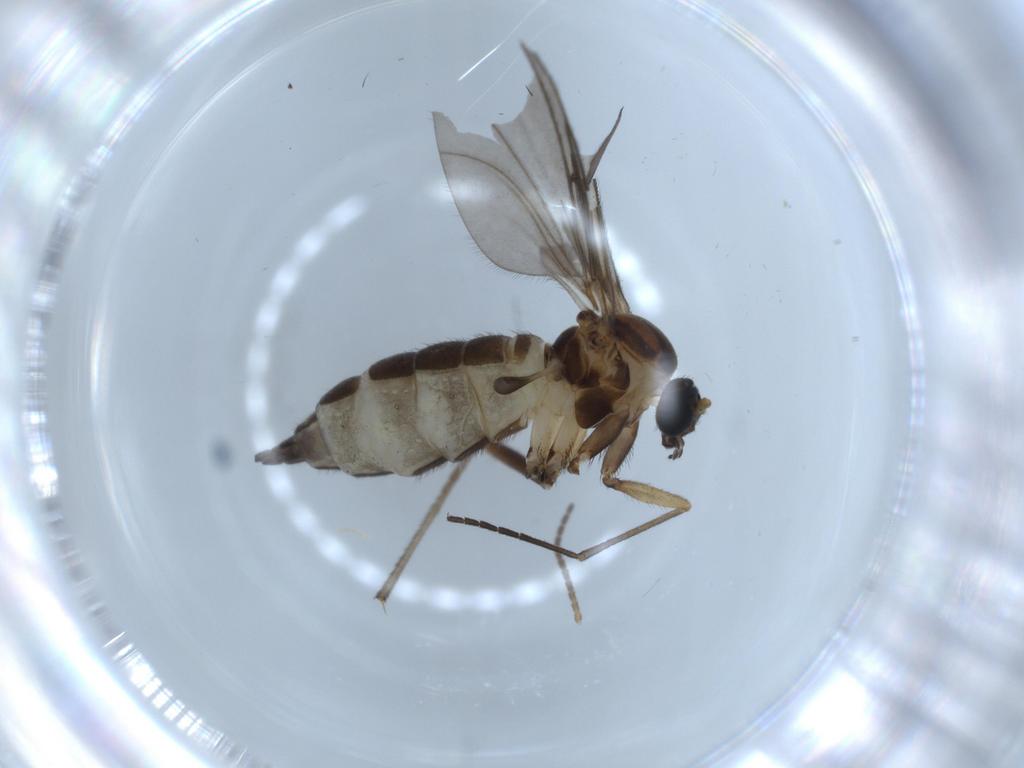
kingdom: Animalia
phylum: Arthropoda
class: Insecta
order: Diptera
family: Sciaridae
